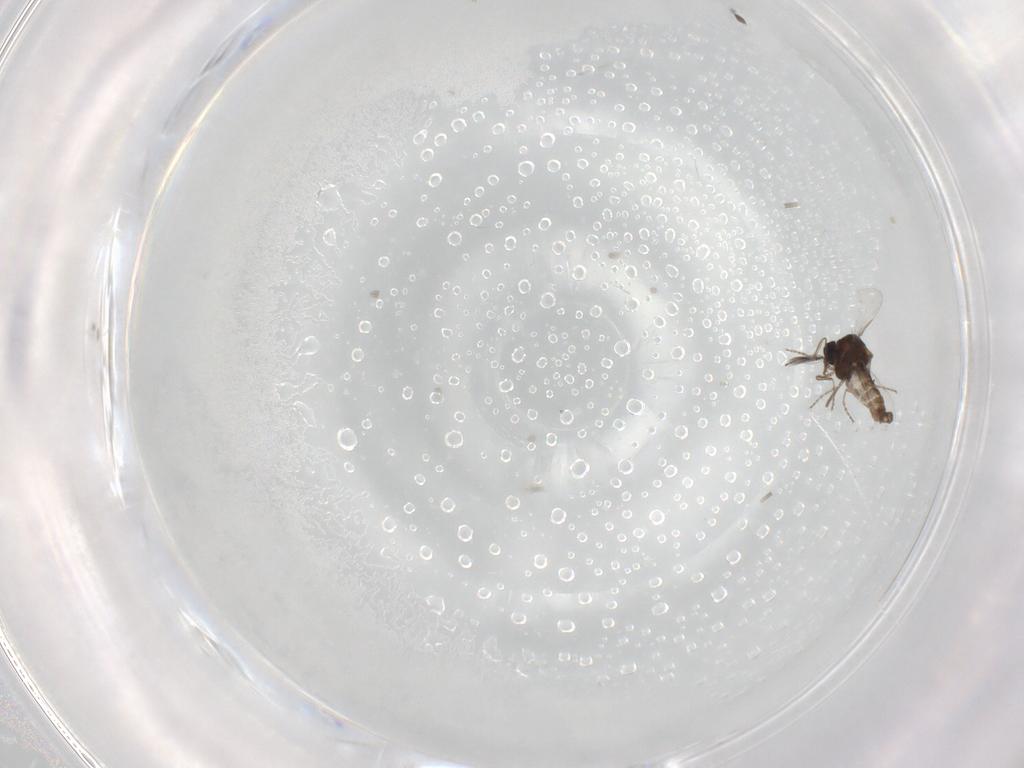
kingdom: Animalia
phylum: Arthropoda
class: Insecta
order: Diptera
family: Ceratopogonidae
